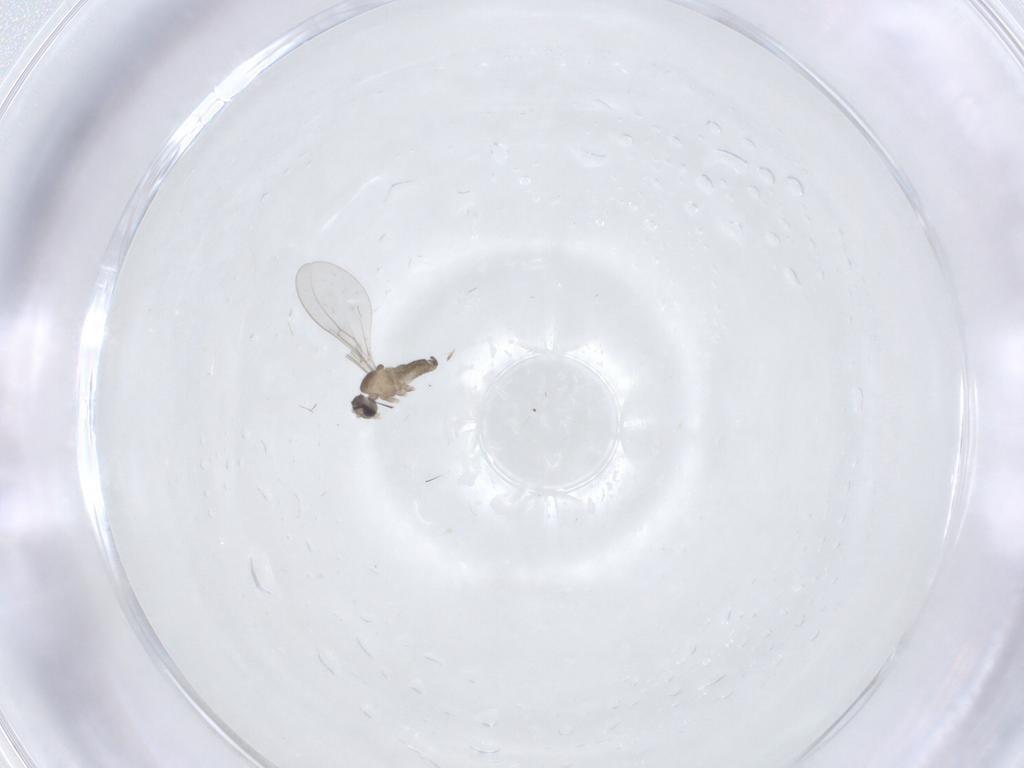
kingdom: Animalia
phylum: Arthropoda
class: Insecta
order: Diptera
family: Cecidomyiidae
